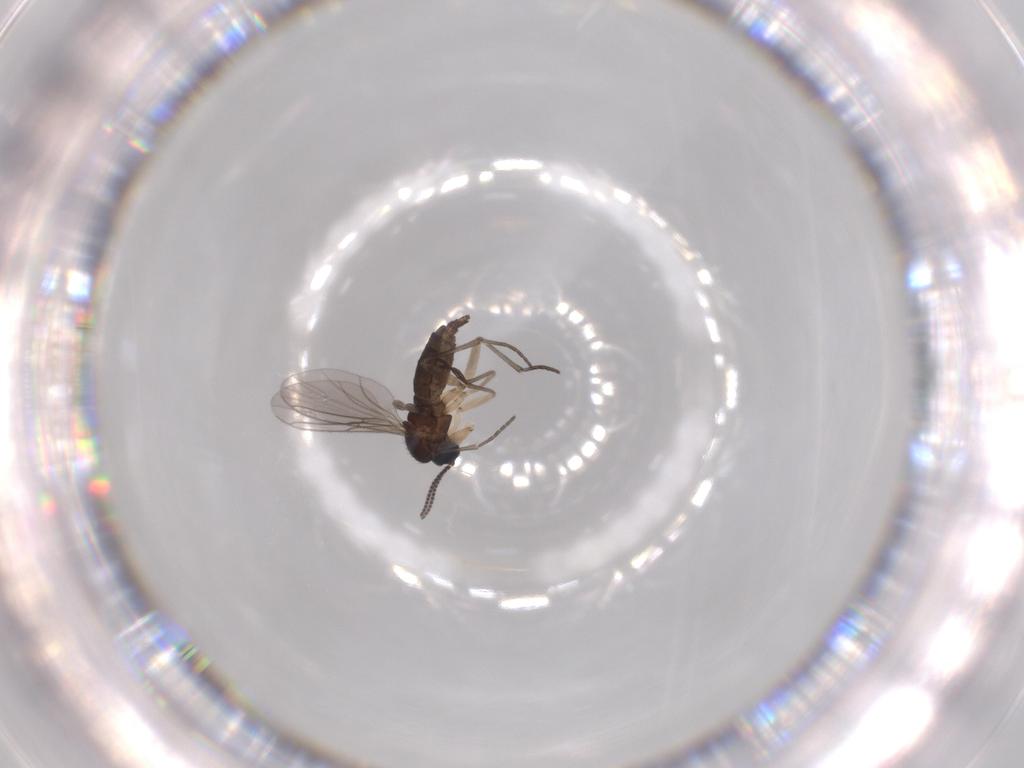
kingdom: Animalia
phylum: Arthropoda
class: Insecta
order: Diptera
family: Sciaridae
